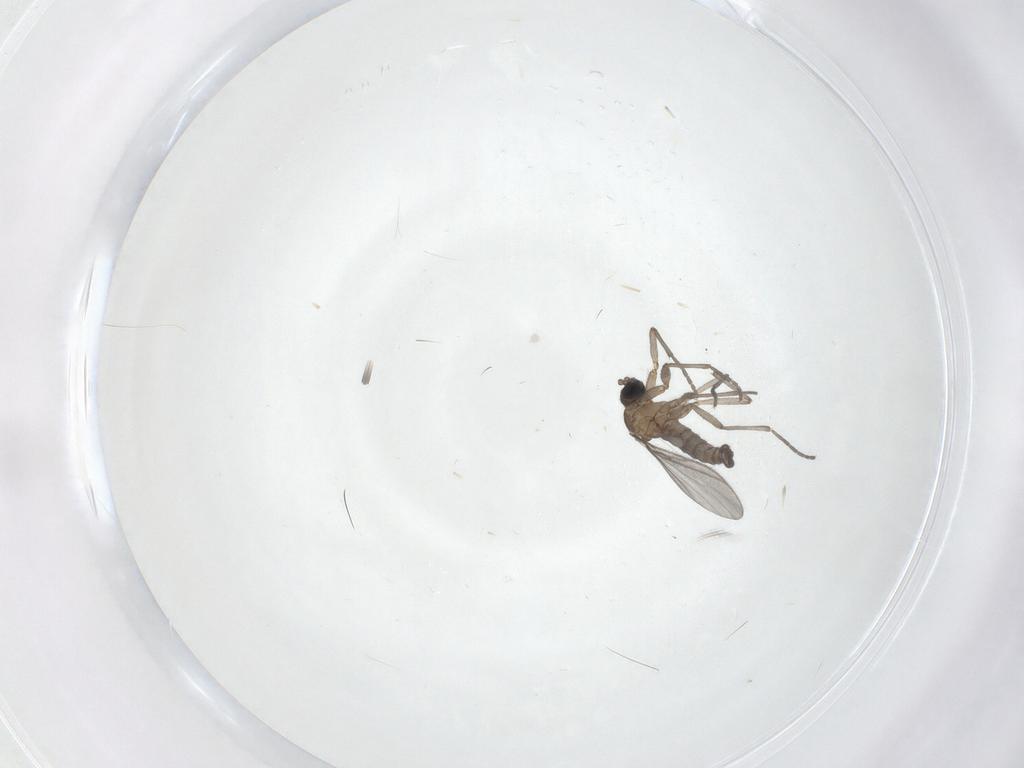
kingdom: Animalia
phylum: Arthropoda
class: Insecta
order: Diptera
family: Sciaridae
